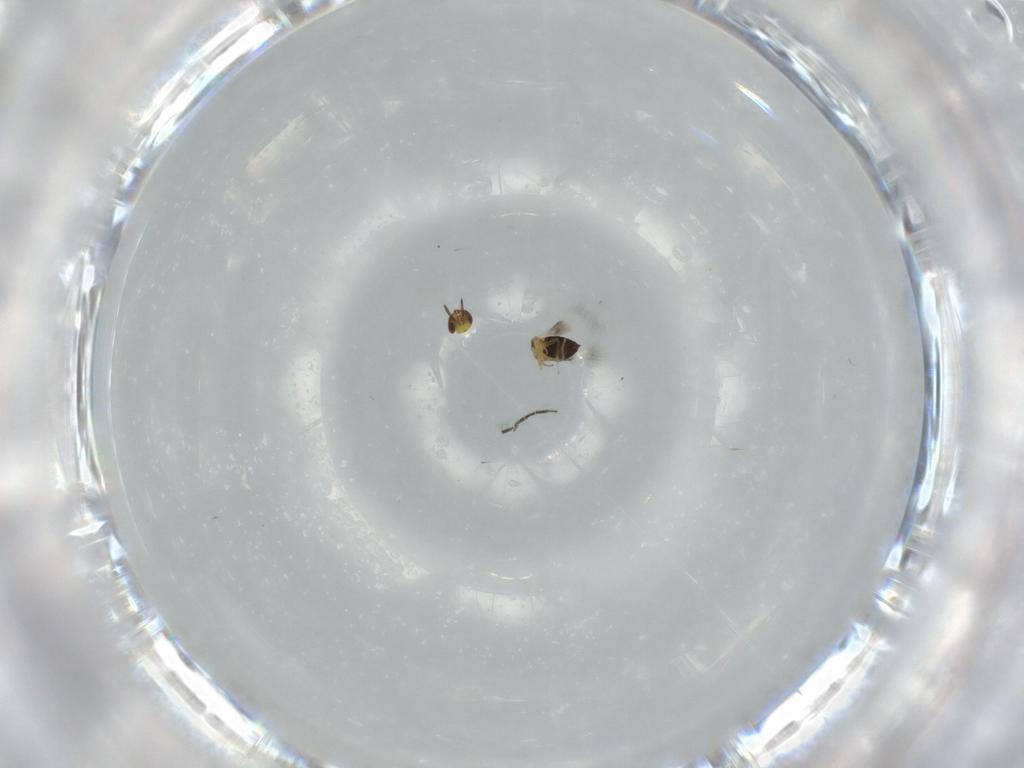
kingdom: Animalia
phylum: Arthropoda
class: Insecta
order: Hymenoptera
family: Signiphoridae
